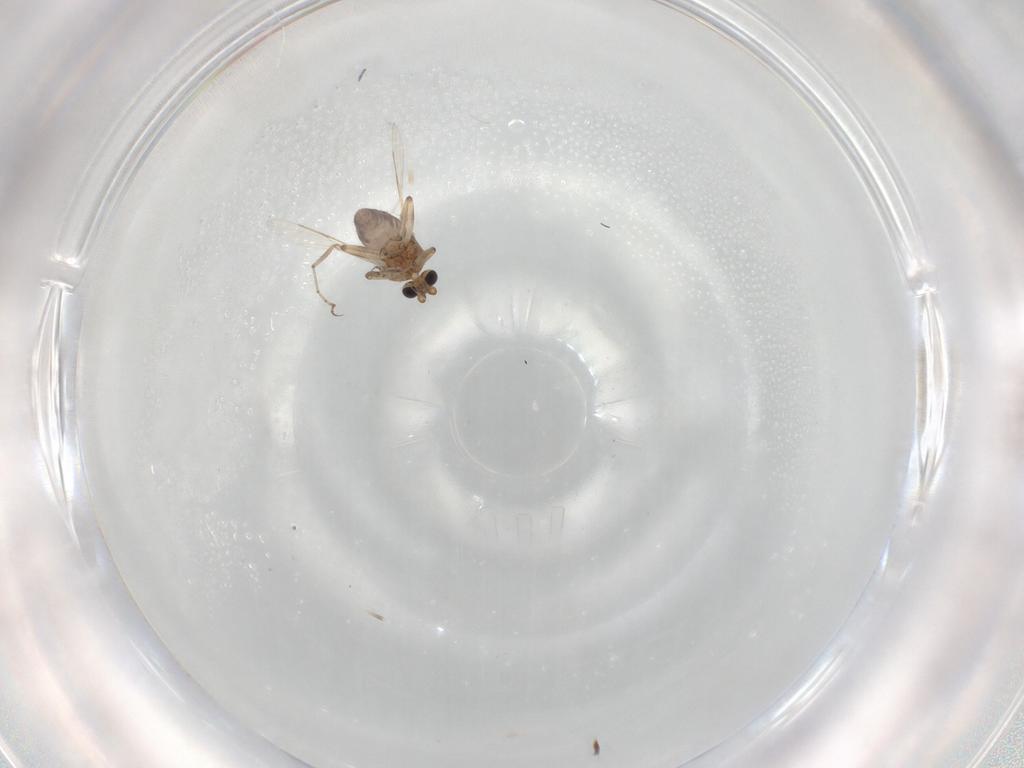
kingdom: Animalia
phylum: Arthropoda
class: Insecta
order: Diptera
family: Ceratopogonidae
